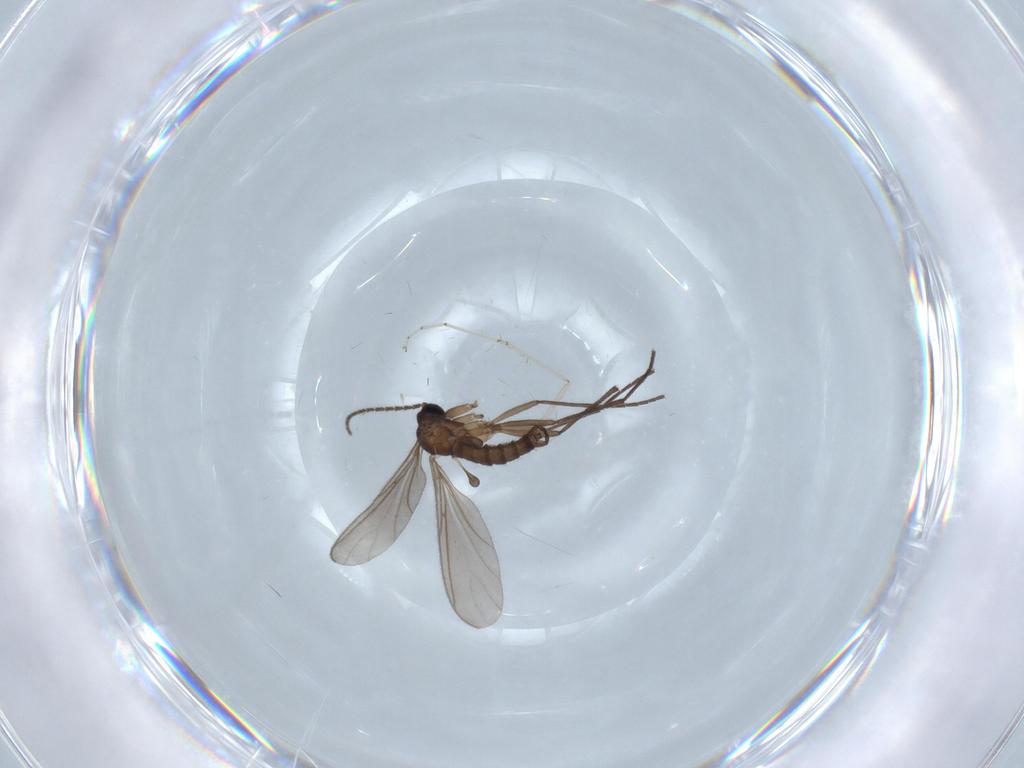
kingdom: Animalia
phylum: Arthropoda
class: Insecta
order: Diptera
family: Cecidomyiidae
